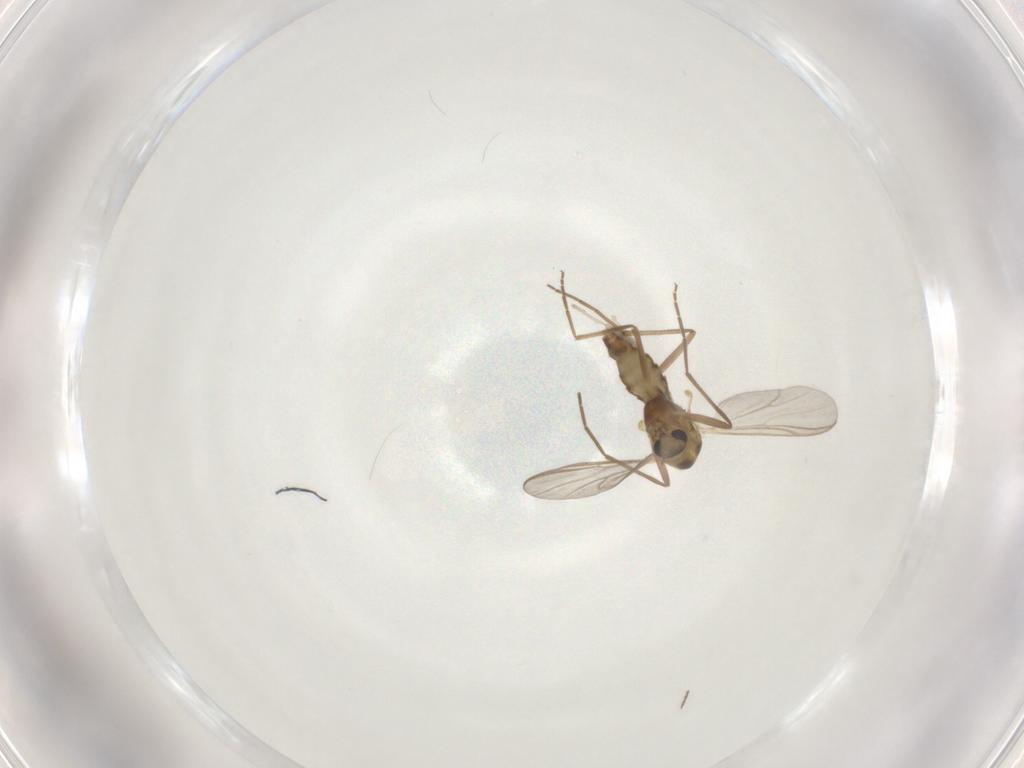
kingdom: Animalia
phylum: Arthropoda
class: Insecta
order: Diptera
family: Chironomidae
